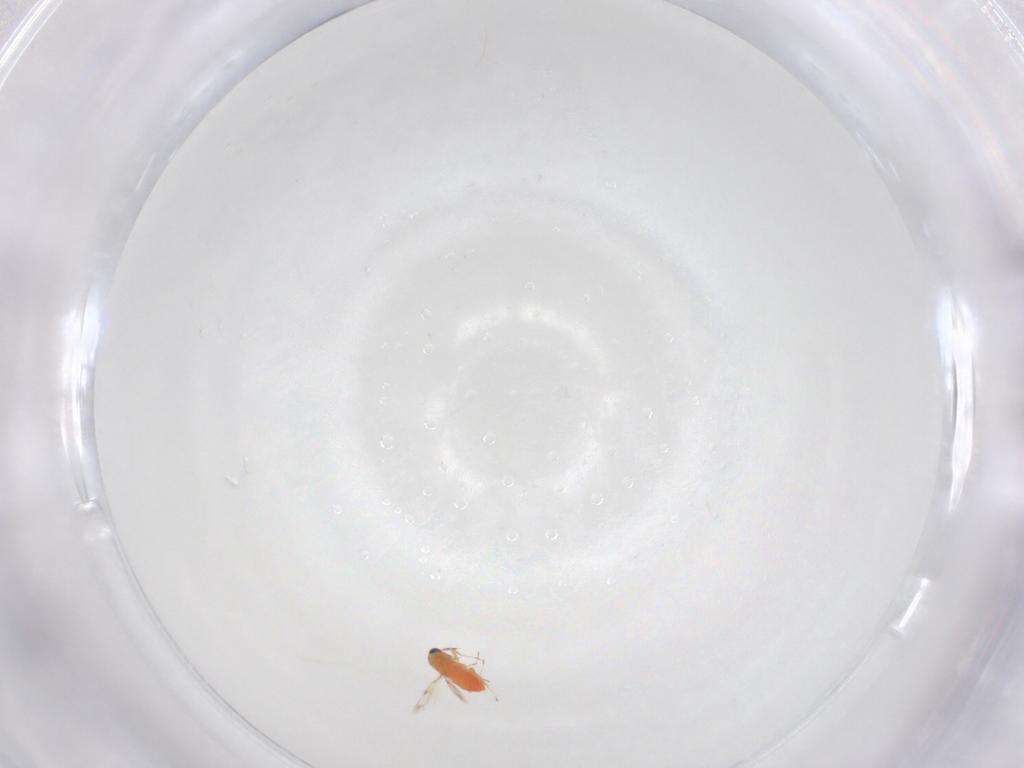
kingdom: Animalia
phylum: Arthropoda
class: Insecta
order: Hymenoptera
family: Trichogrammatidae
